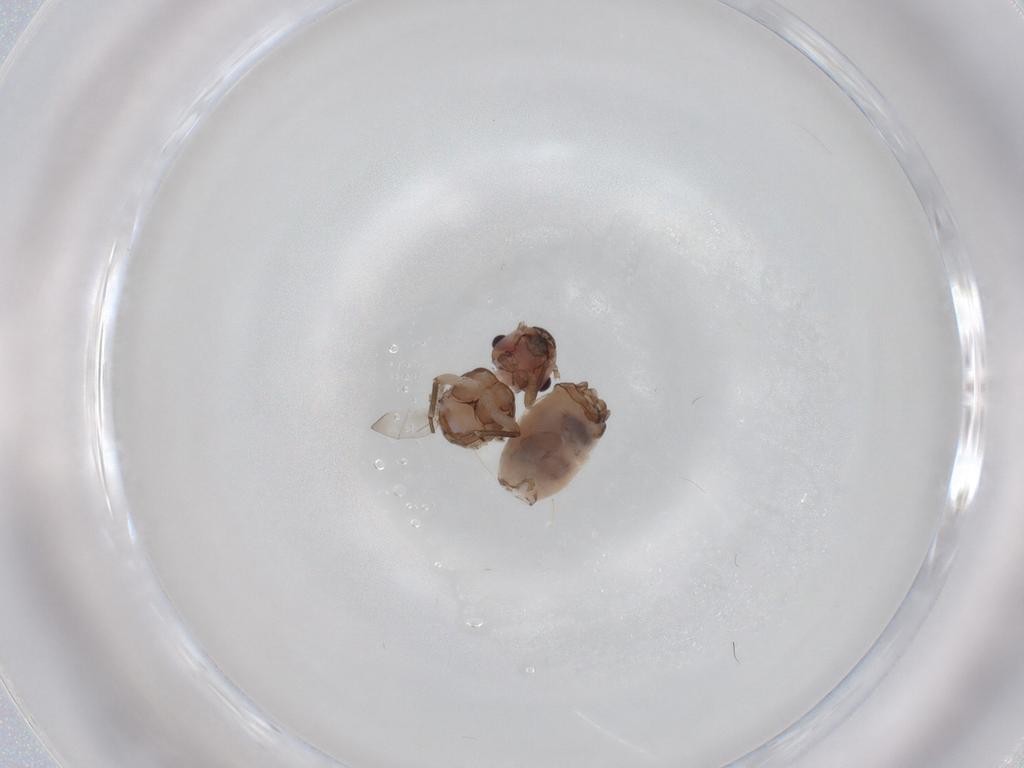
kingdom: Animalia
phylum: Arthropoda
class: Insecta
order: Psocodea
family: Peripsocidae
